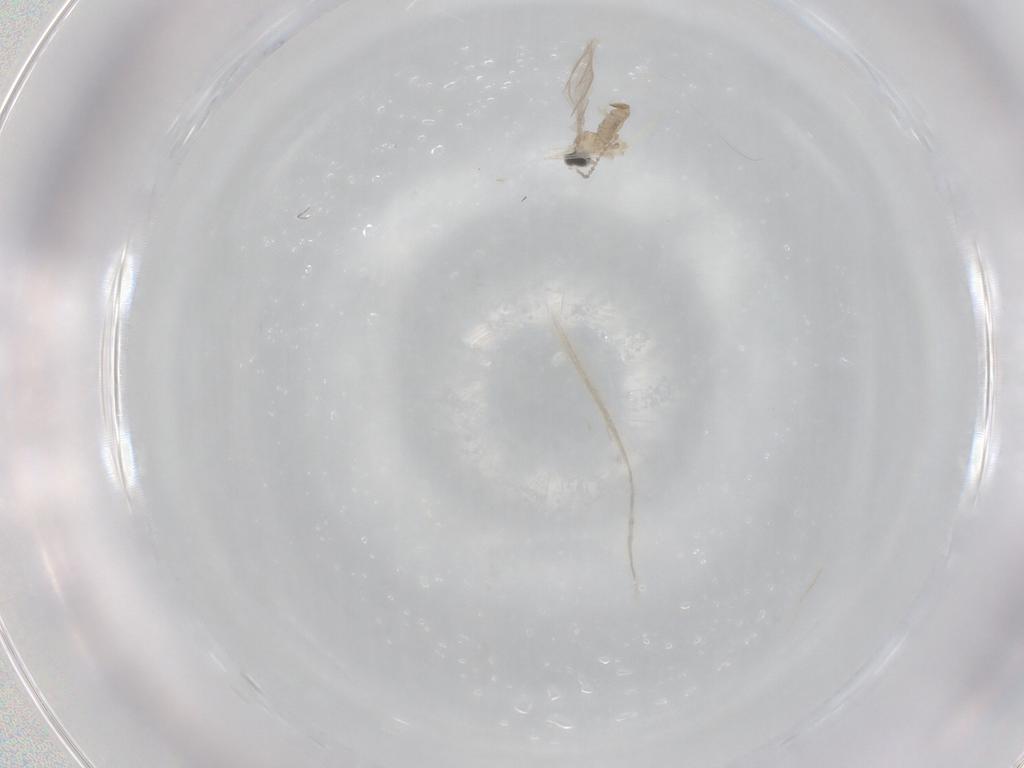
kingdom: Animalia
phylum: Arthropoda
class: Insecta
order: Diptera
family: Cecidomyiidae
